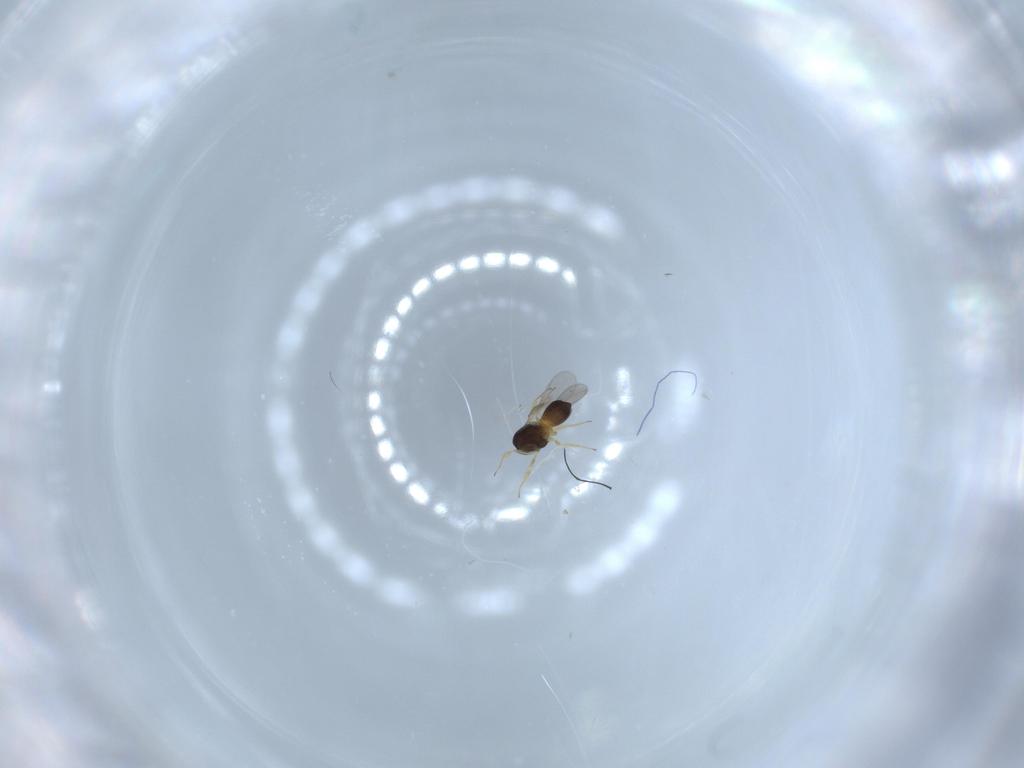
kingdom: Animalia
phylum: Arthropoda
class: Insecta
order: Hymenoptera
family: Scelionidae
